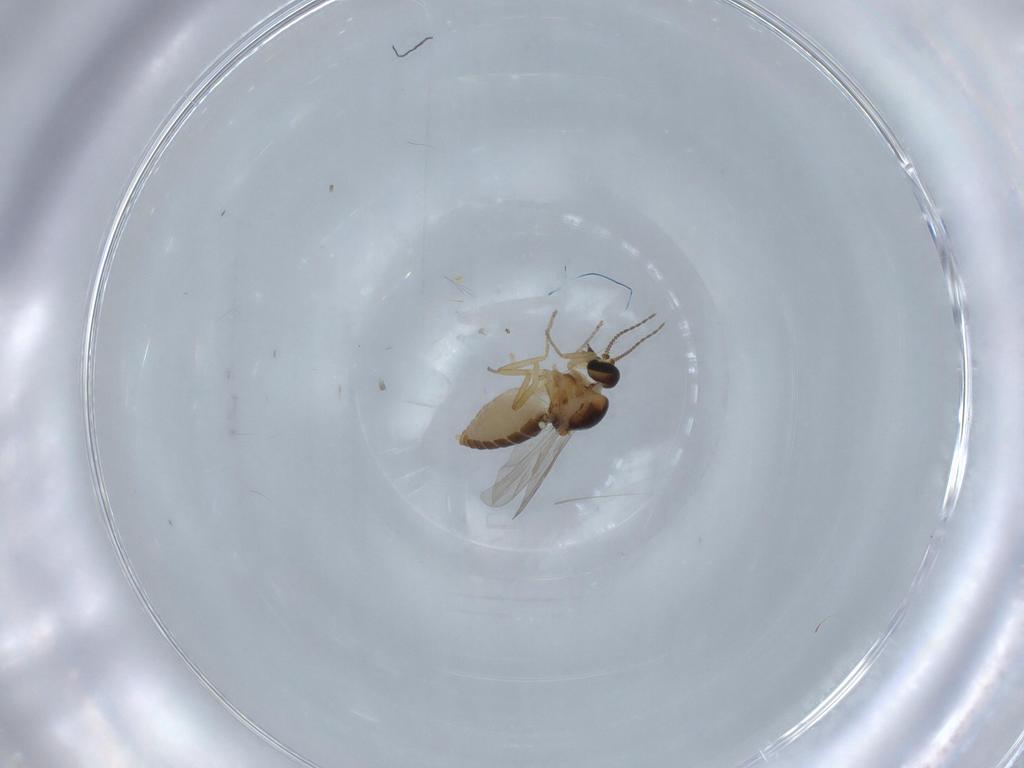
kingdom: Animalia
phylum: Arthropoda
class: Insecta
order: Diptera
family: Ceratopogonidae
